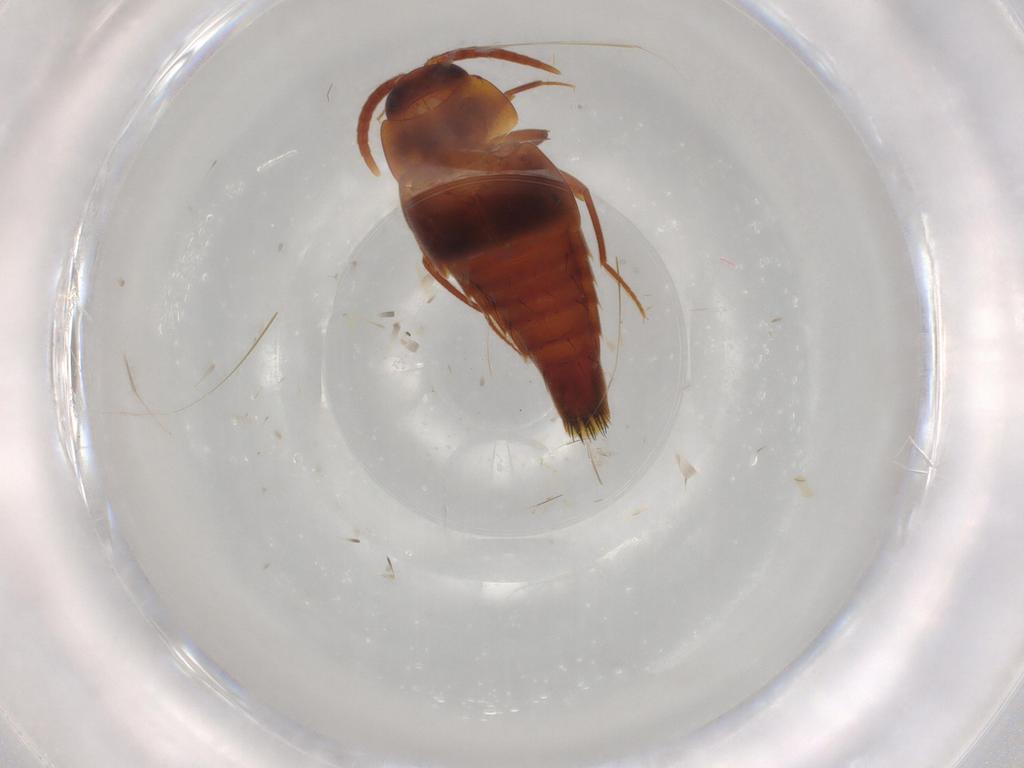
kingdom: Animalia
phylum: Arthropoda
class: Insecta
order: Coleoptera
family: Staphylinidae
